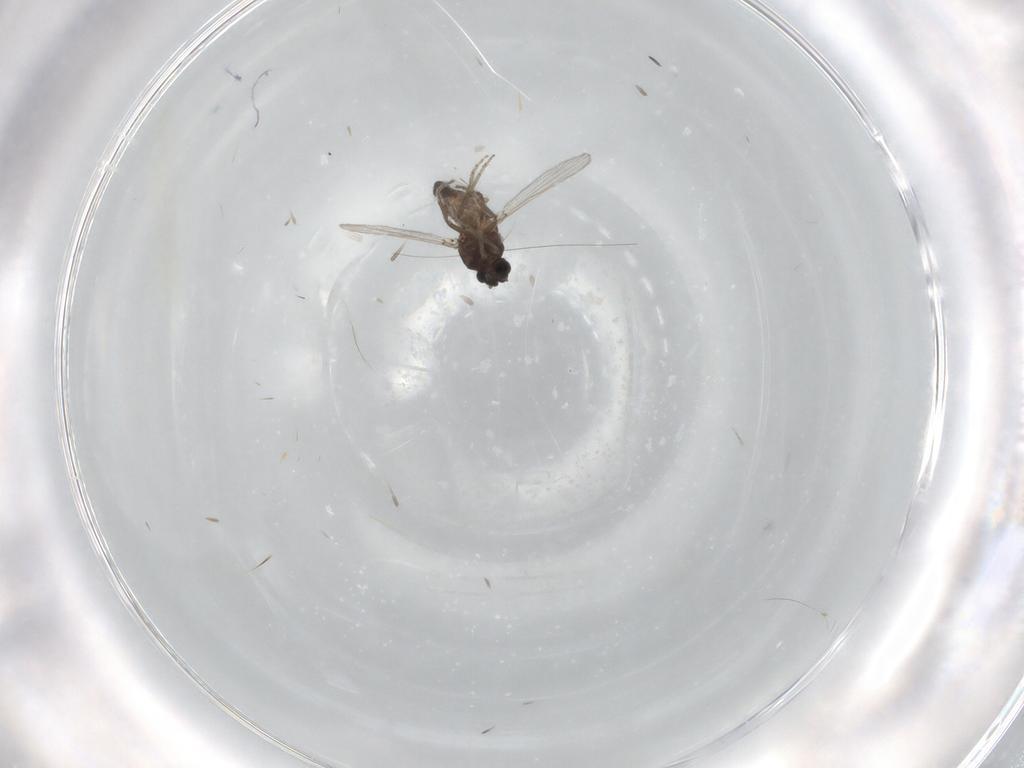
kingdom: Animalia
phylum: Arthropoda
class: Insecta
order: Diptera
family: Ceratopogonidae
